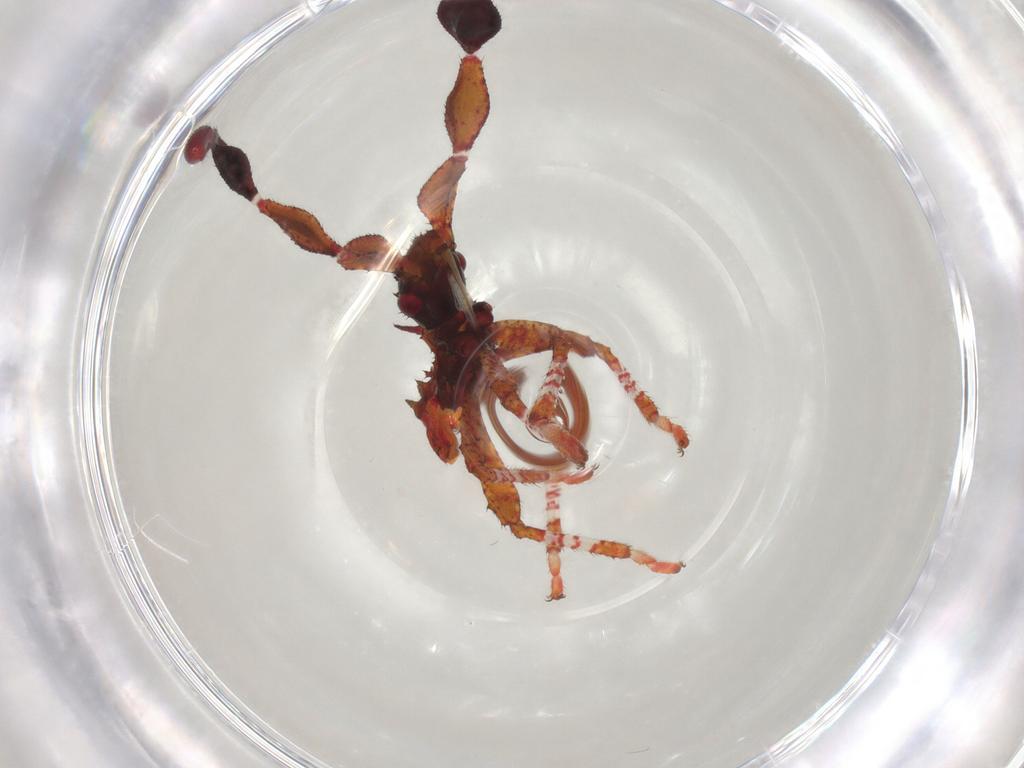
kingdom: Animalia
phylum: Arthropoda
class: Insecta
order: Hemiptera
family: Coreidae
